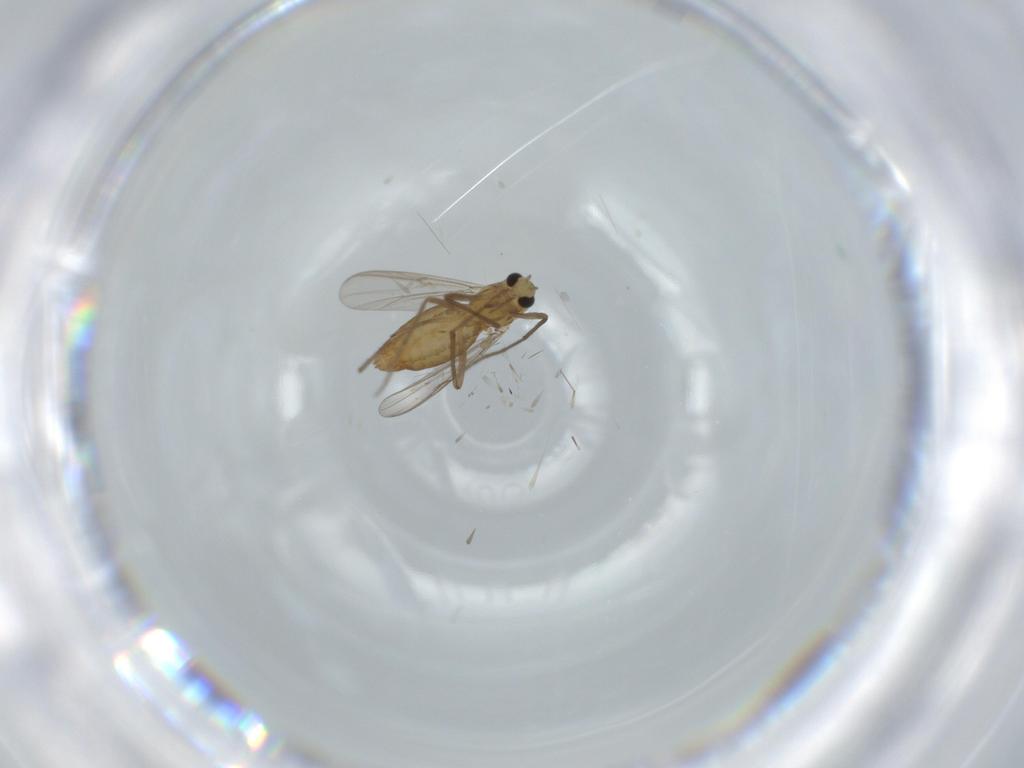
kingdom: Animalia
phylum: Arthropoda
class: Insecta
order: Diptera
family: Chironomidae
